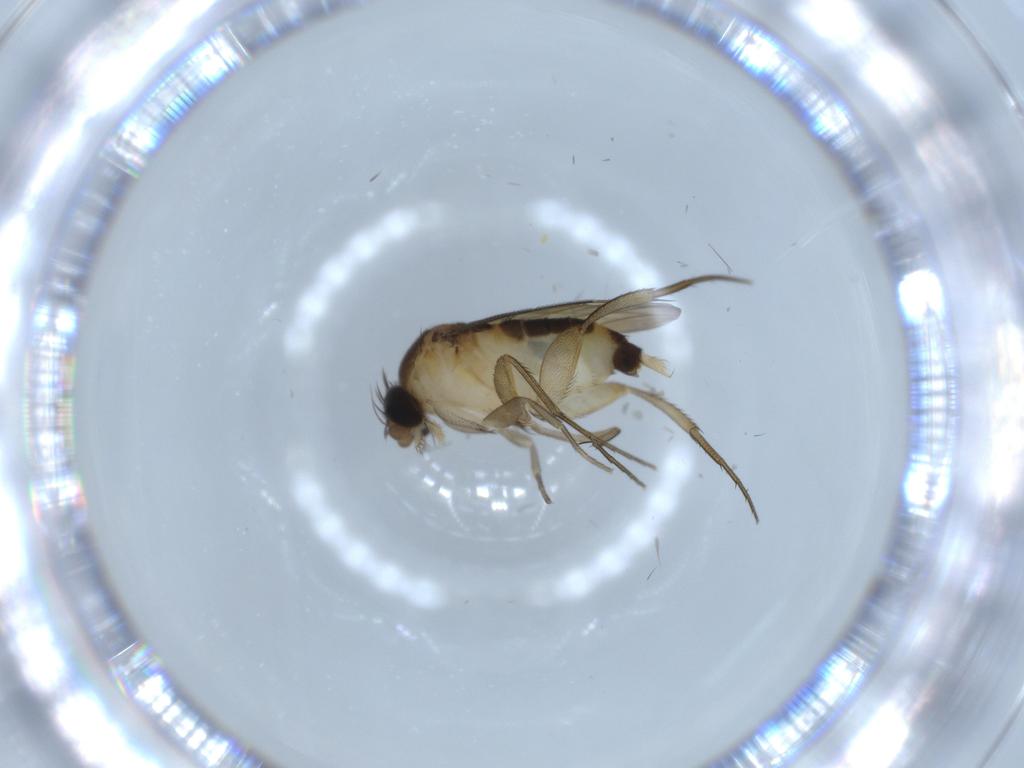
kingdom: Animalia
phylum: Arthropoda
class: Insecta
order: Diptera
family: Phoridae
